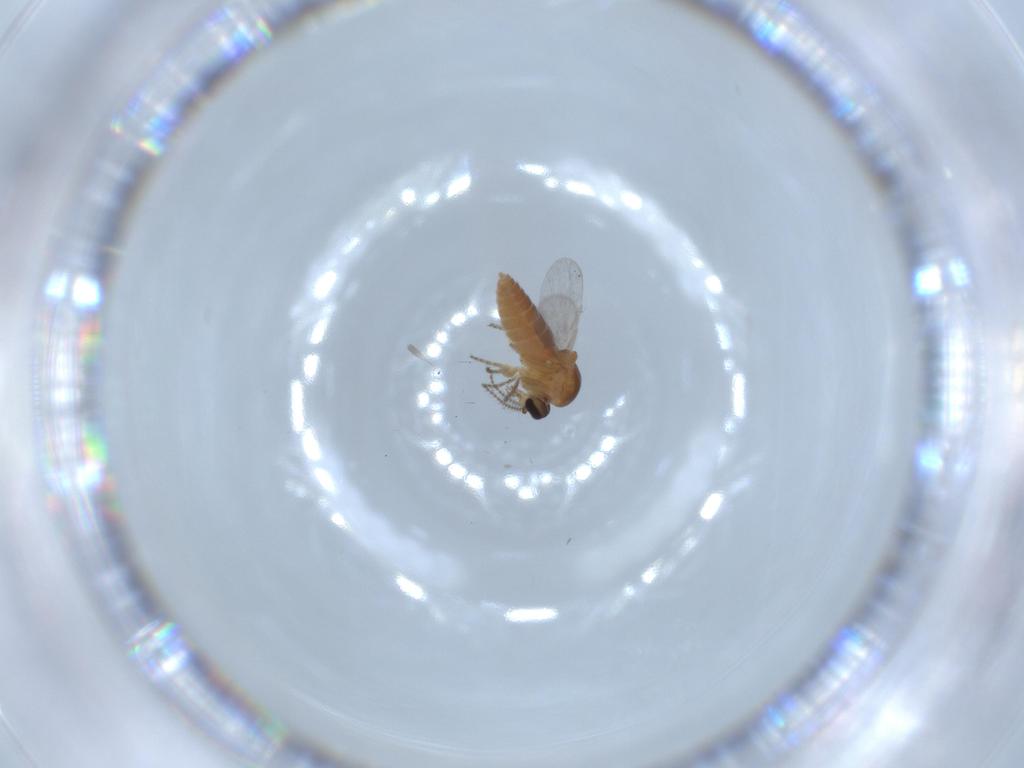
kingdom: Animalia
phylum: Arthropoda
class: Insecta
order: Diptera
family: Ceratopogonidae
